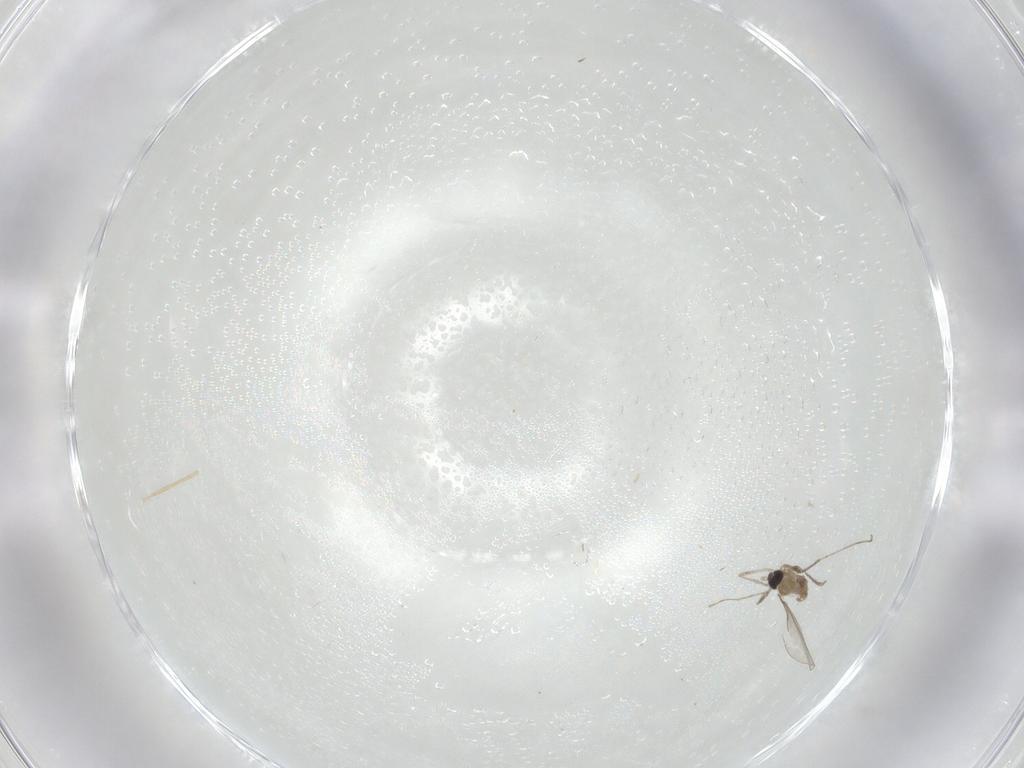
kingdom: Animalia
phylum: Arthropoda
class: Insecta
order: Diptera
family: Cecidomyiidae
